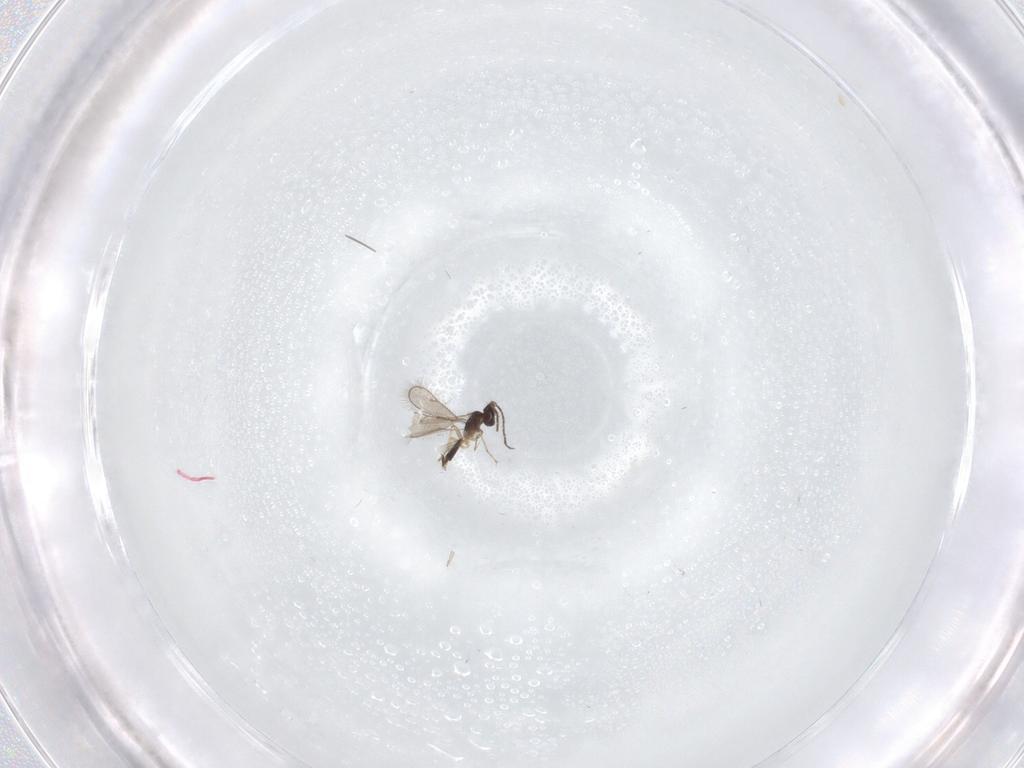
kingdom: Animalia
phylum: Arthropoda
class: Insecta
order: Hymenoptera
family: Eulophidae
